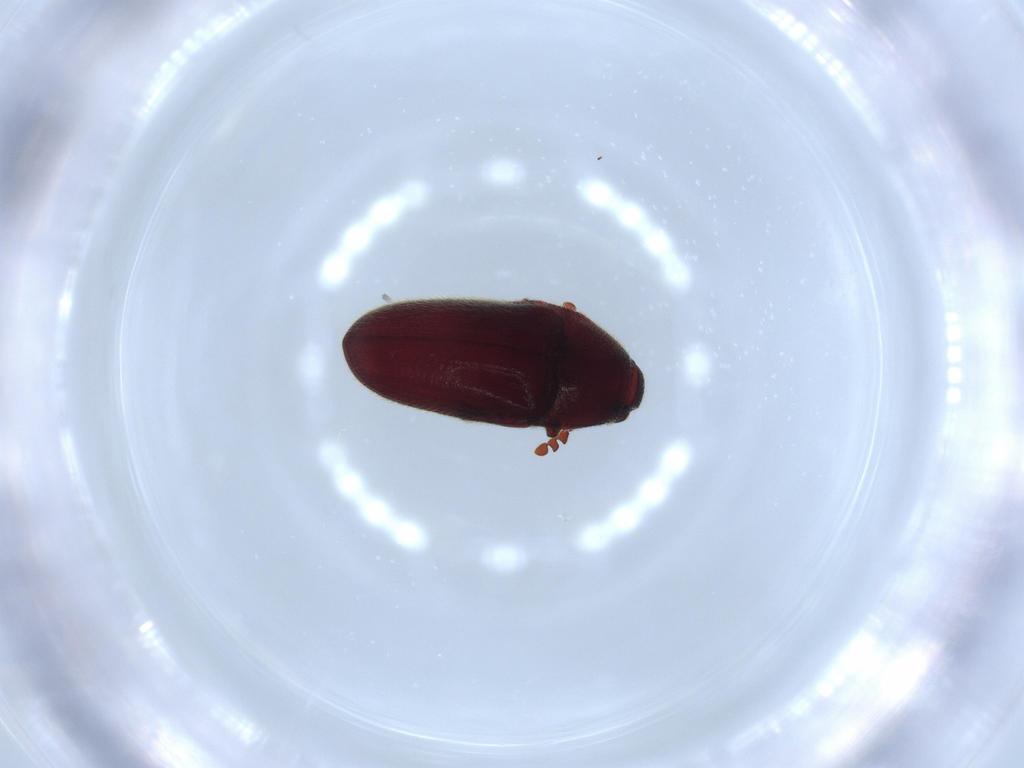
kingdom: Animalia
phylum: Arthropoda
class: Insecta
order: Coleoptera
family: Throscidae
